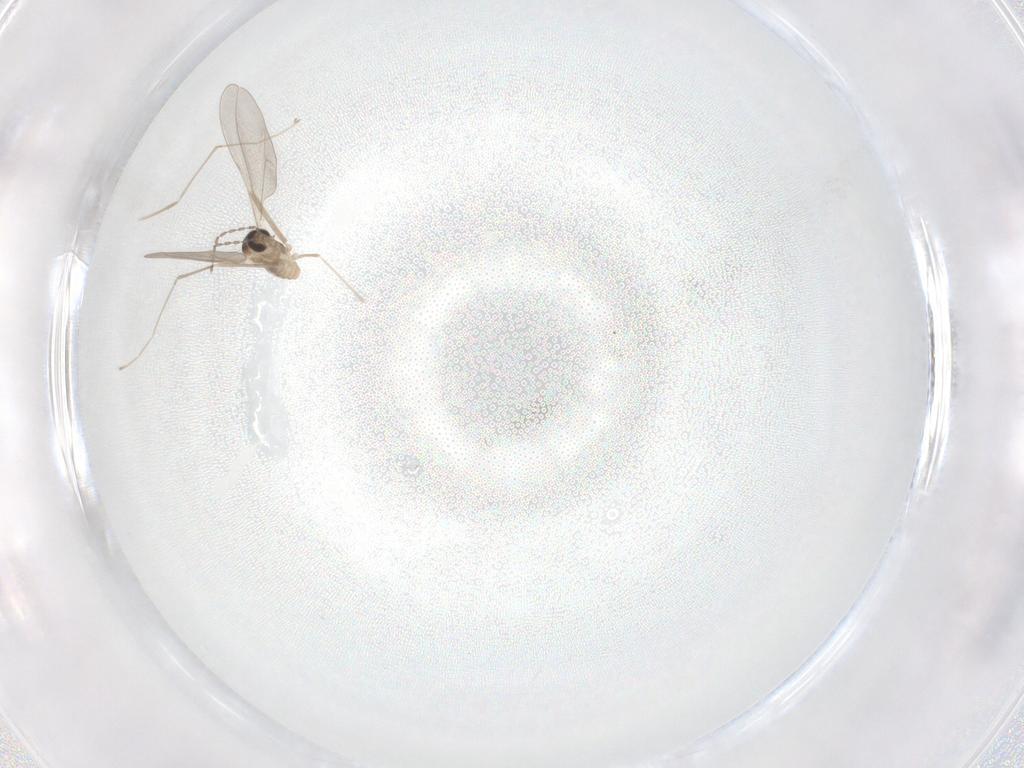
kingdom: Animalia
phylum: Arthropoda
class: Insecta
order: Diptera
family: Cecidomyiidae
